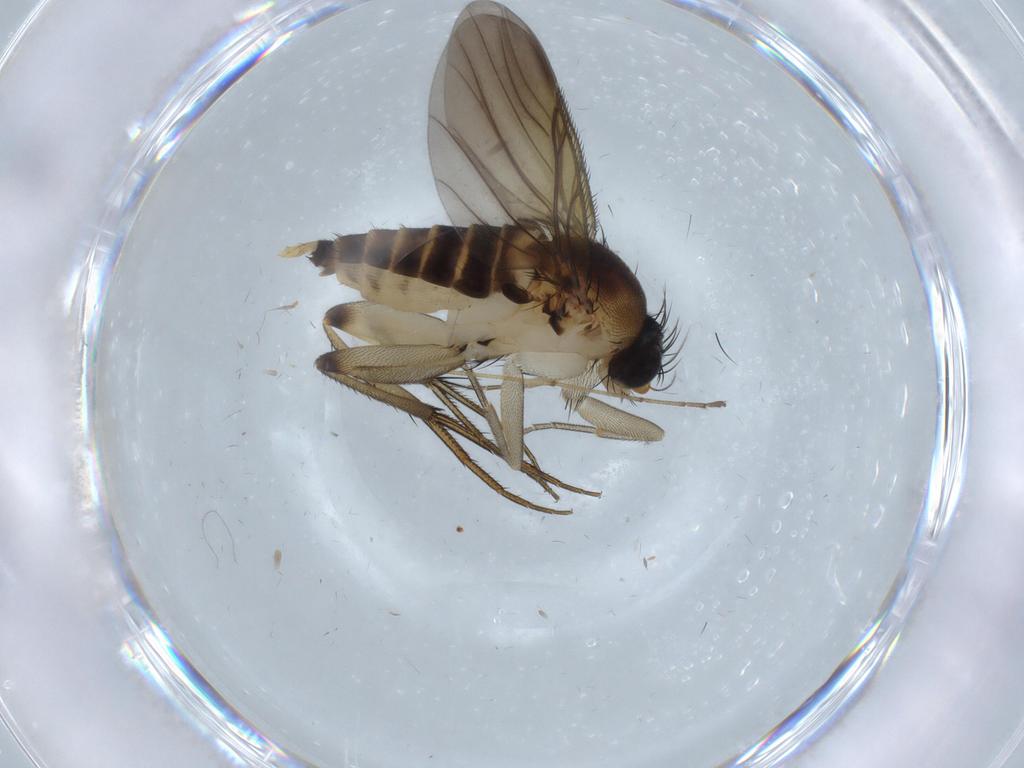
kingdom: Animalia
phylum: Arthropoda
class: Insecta
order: Diptera
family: Limoniidae
